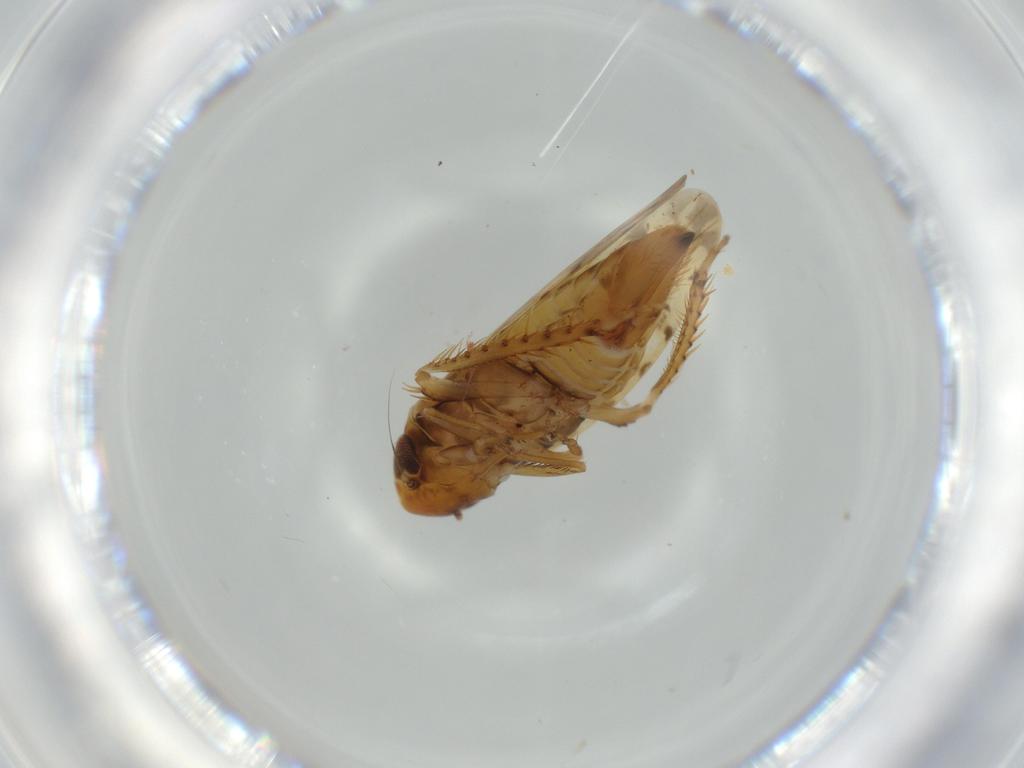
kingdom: Animalia
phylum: Arthropoda
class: Insecta
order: Hemiptera
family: Cicadellidae
